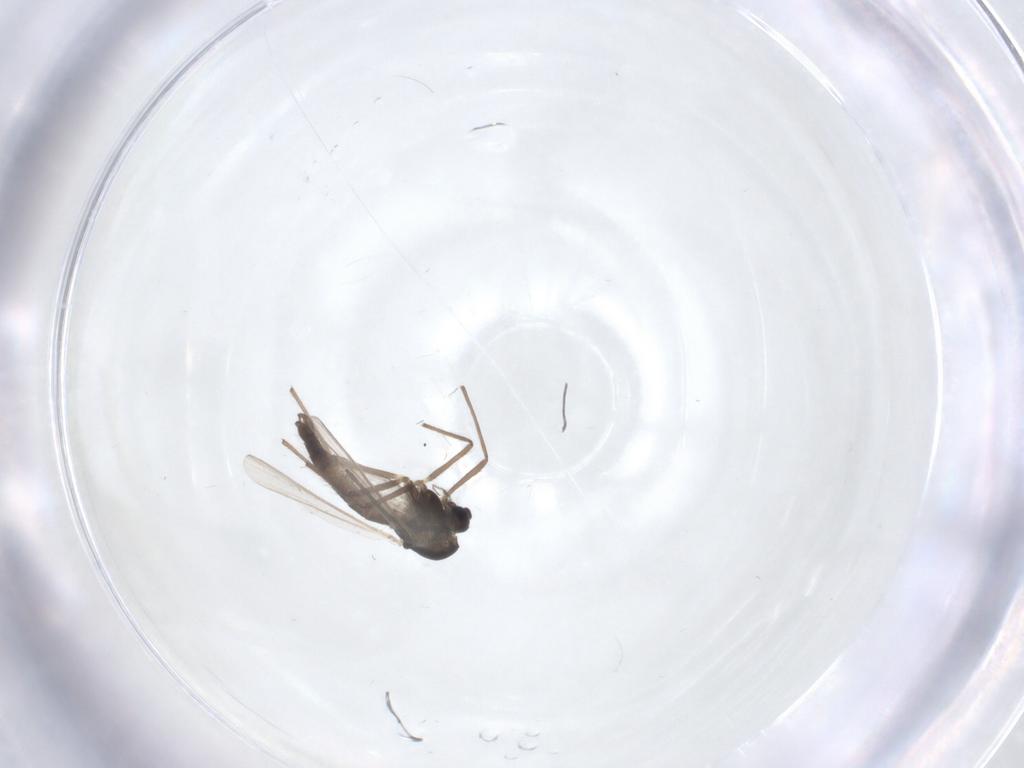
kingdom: Animalia
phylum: Arthropoda
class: Insecta
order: Diptera
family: Chironomidae
